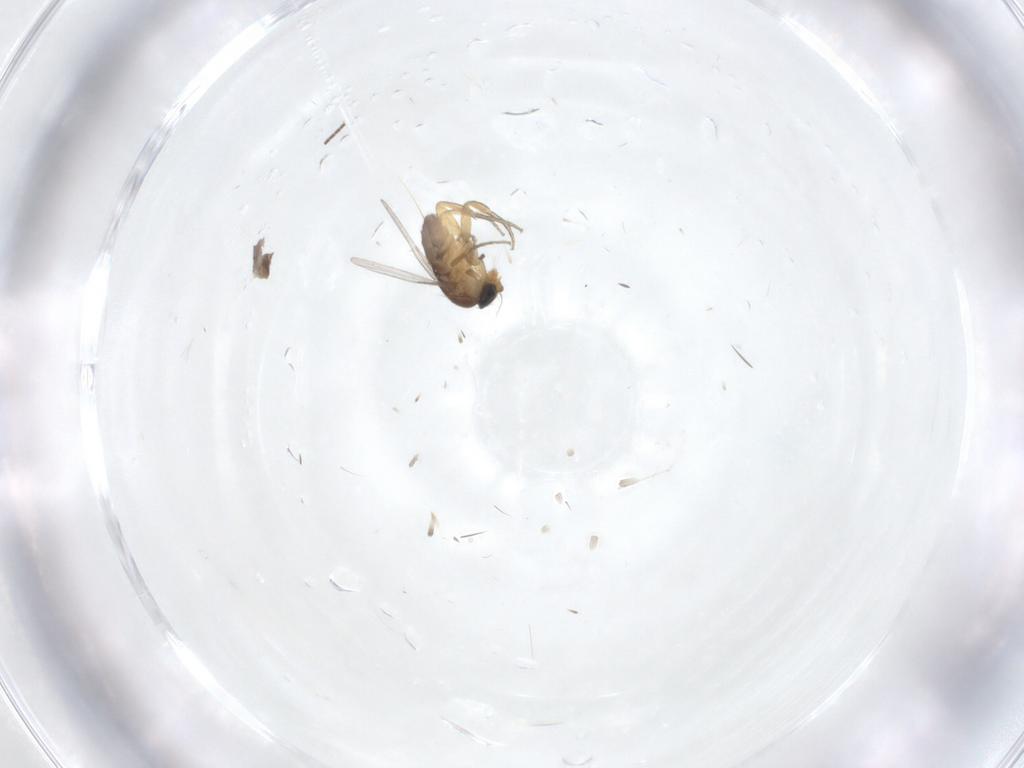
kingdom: Animalia
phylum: Arthropoda
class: Insecta
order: Diptera
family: Sciaridae
